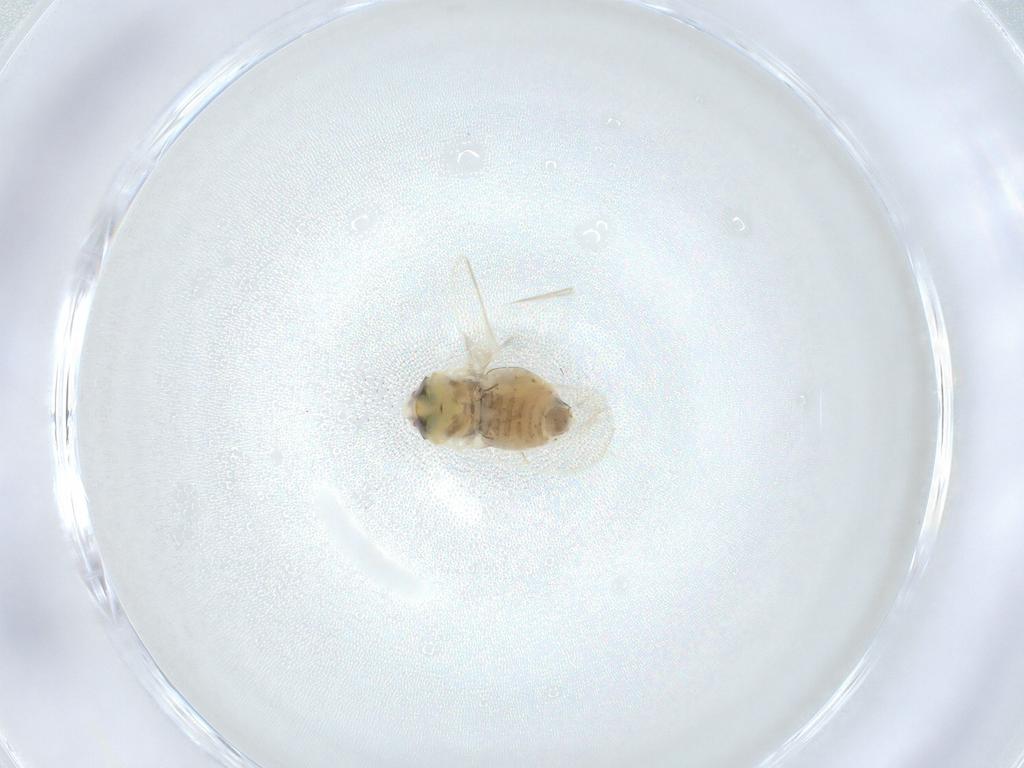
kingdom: Animalia
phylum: Arthropoda
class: Insecta
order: Hemiptera
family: Aleyrodidae
